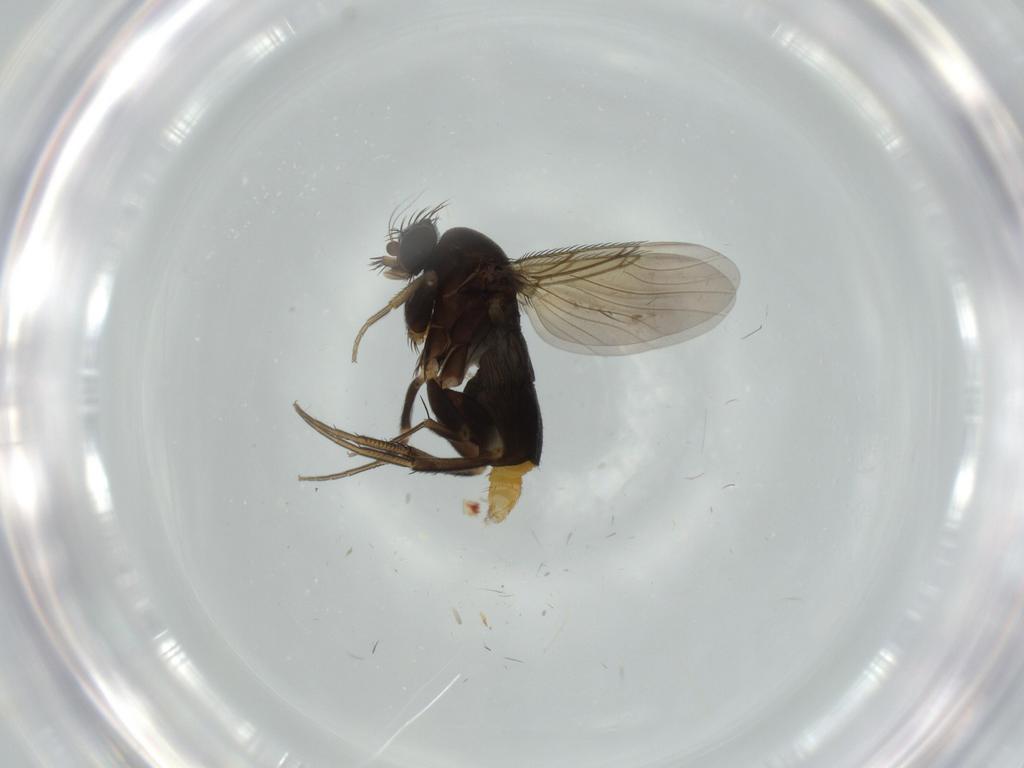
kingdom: Animalia
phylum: Arthropoda
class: Insecta
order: Diptera
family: Phoridae
